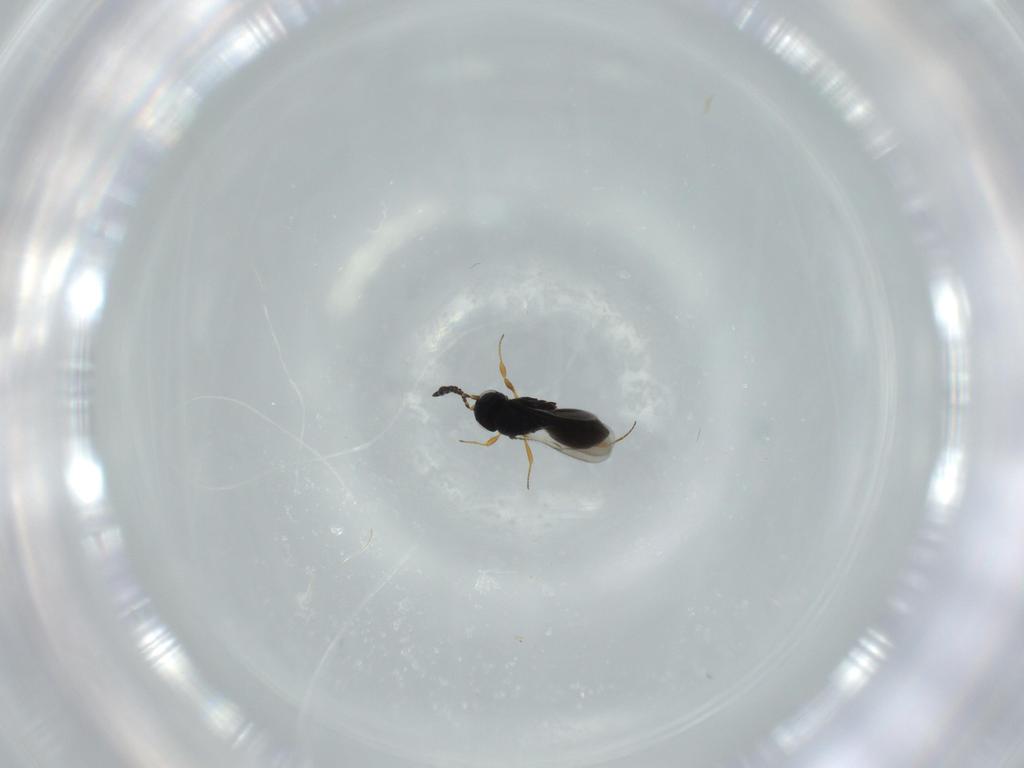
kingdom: Animalia
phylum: Arthropoda
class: Insecta
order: Hymenoptera
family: Scelionidae
